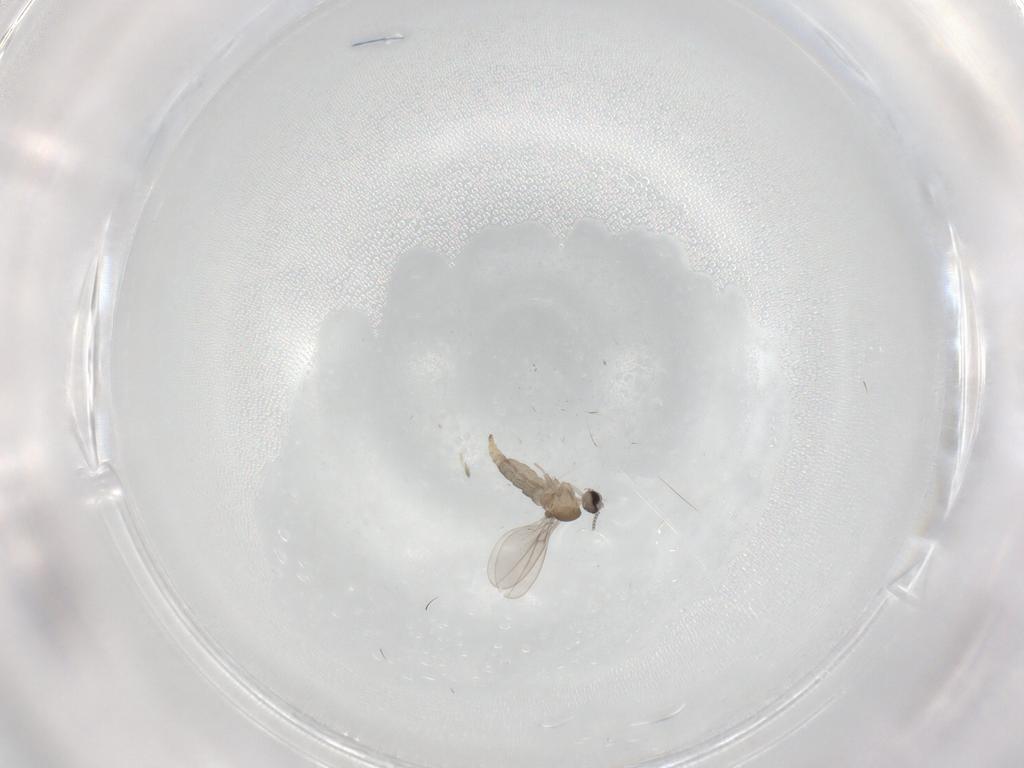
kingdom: Animalia
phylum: Arthropoda
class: Insecta
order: Diptera
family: Cecidomyiidae
